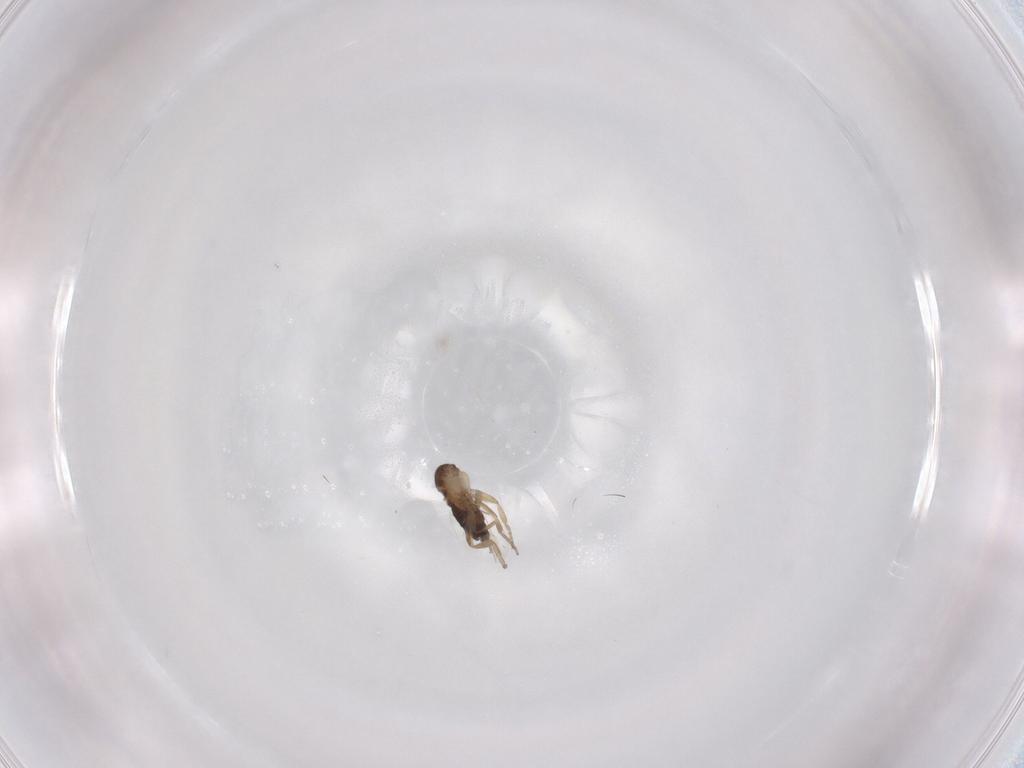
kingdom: Animalia
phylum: Arthropoda
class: Insecta
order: Diptera
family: Phoridae
